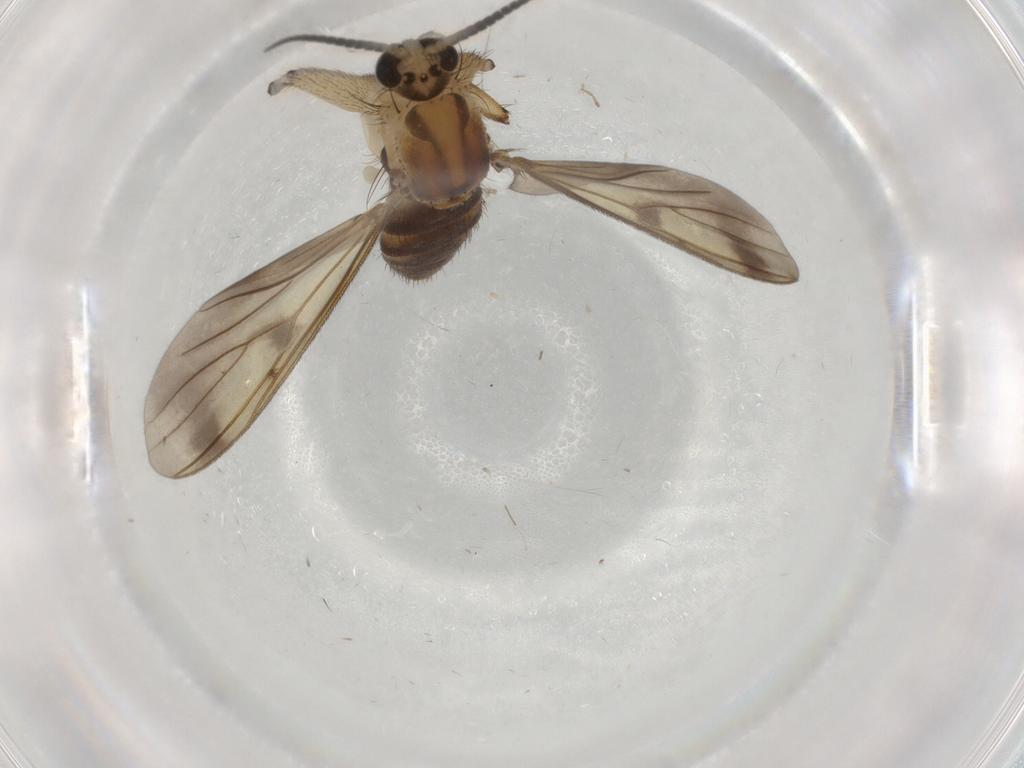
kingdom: Animalia
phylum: Arthropoda
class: Insecta
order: Diptera
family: Mycetophilidae
